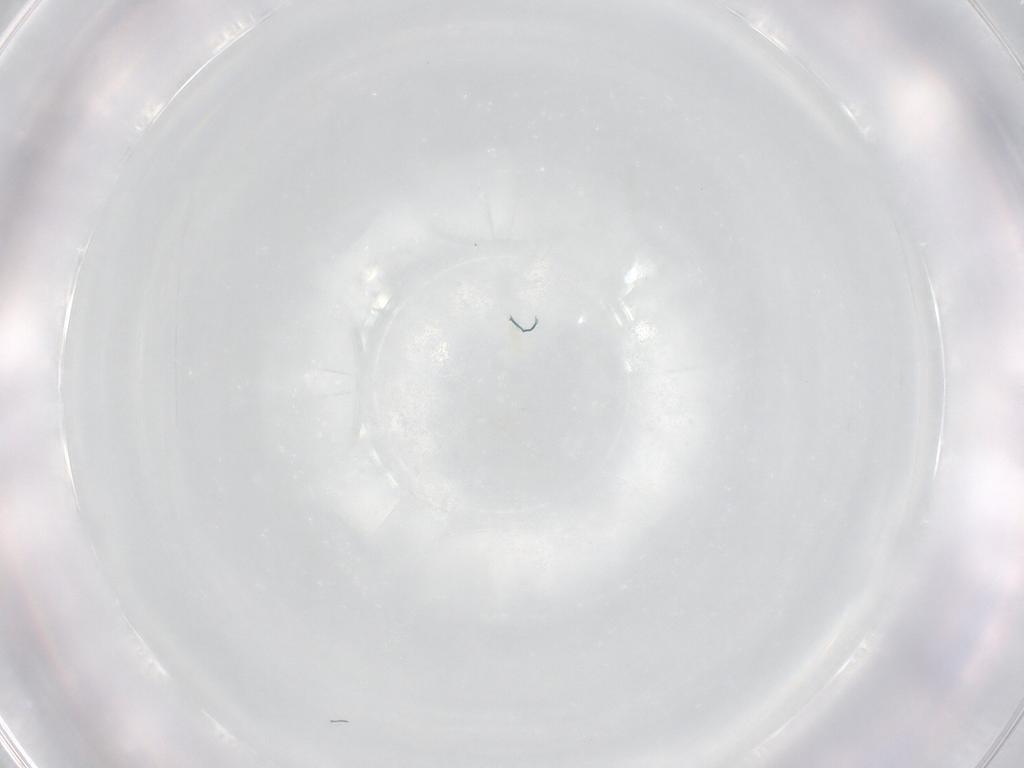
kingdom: Animalia
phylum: Arthropoda
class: Arachnida
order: Trombidiformes
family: Rhagidiidae
